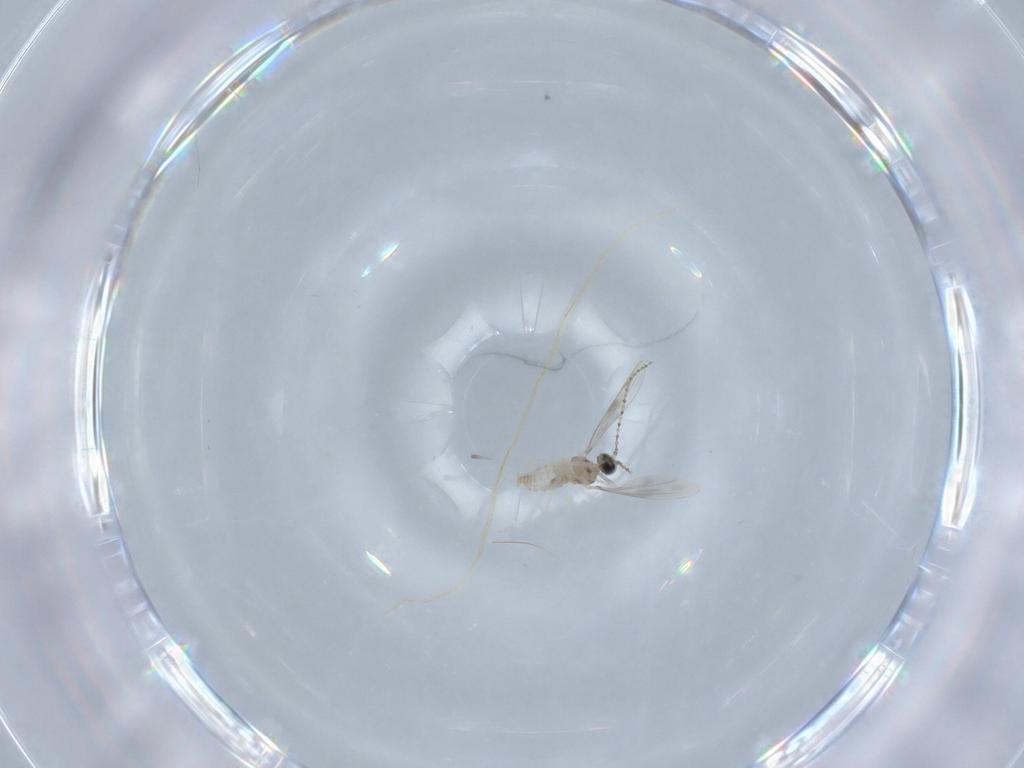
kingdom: Animalia
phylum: Arthropoda
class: Insecta
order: Diptera
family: Cecidomyiidae
